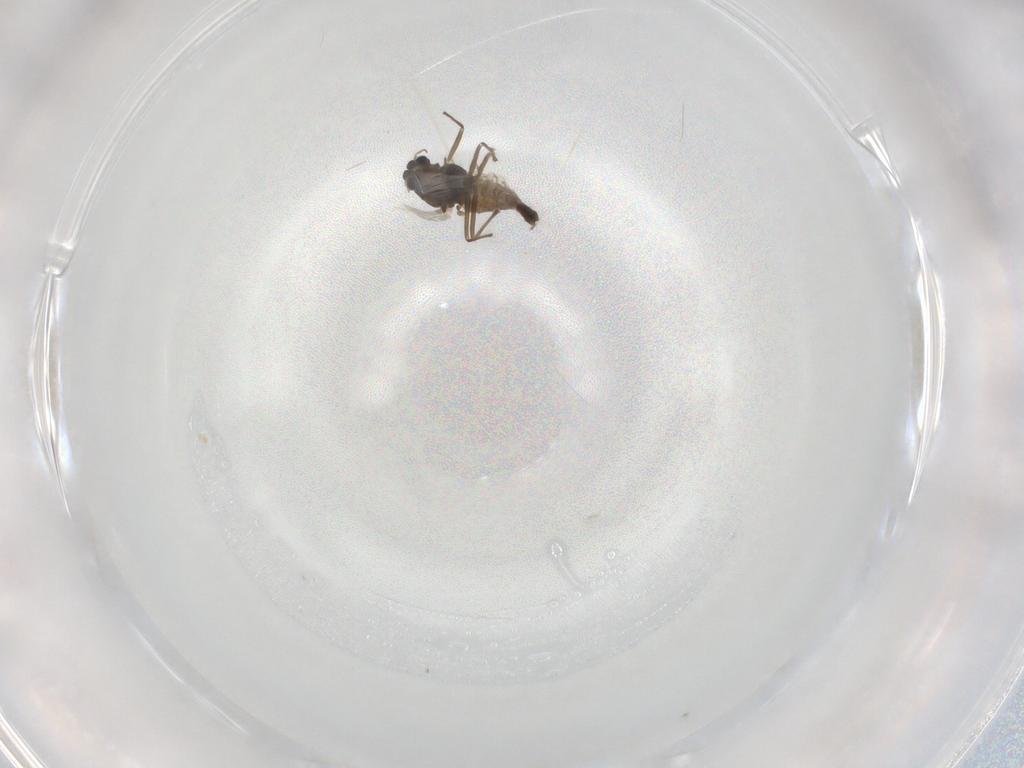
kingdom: Animalia
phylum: Arthropoda
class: Insecta
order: Diptera
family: Chironomidae
